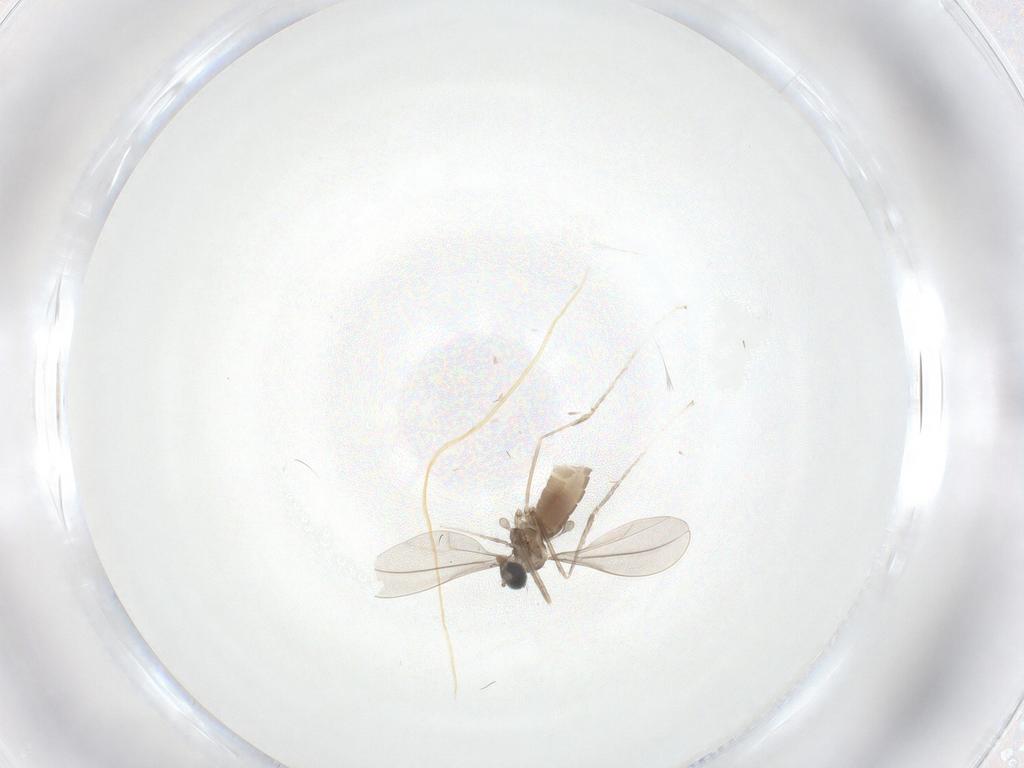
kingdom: Animalia
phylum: Arthropoda
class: Insecta
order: Diptera
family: Cecidomyiidae
